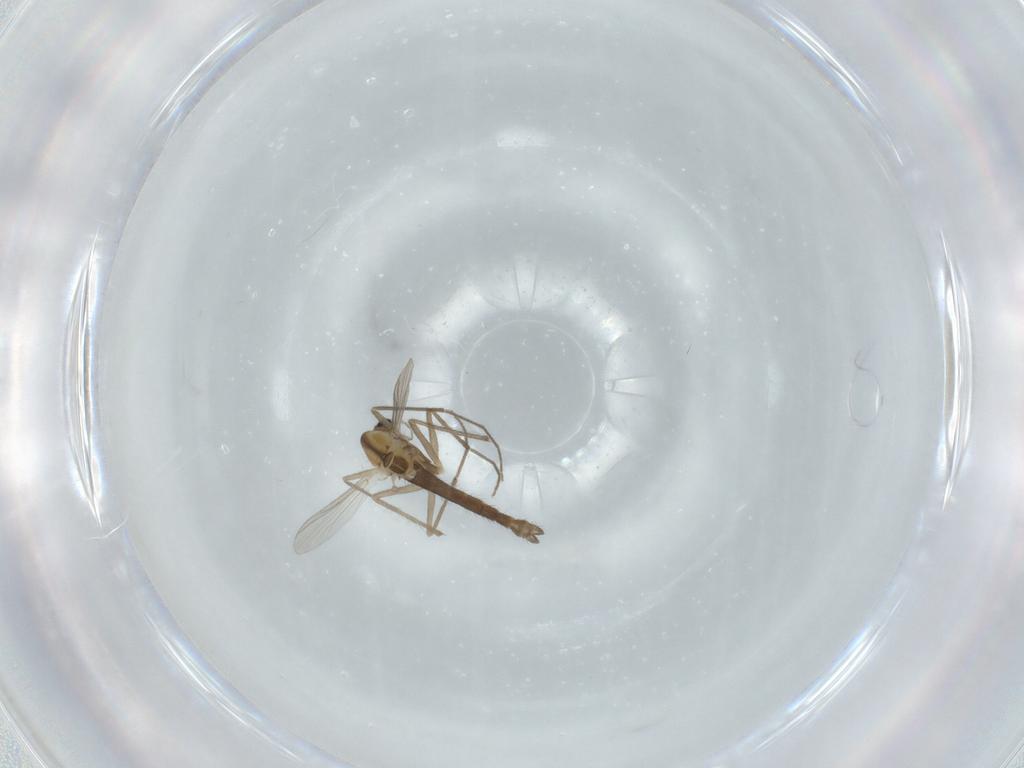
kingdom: Animalia
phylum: Arthropoda
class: Insecta
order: Diptera
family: Chironomidae
